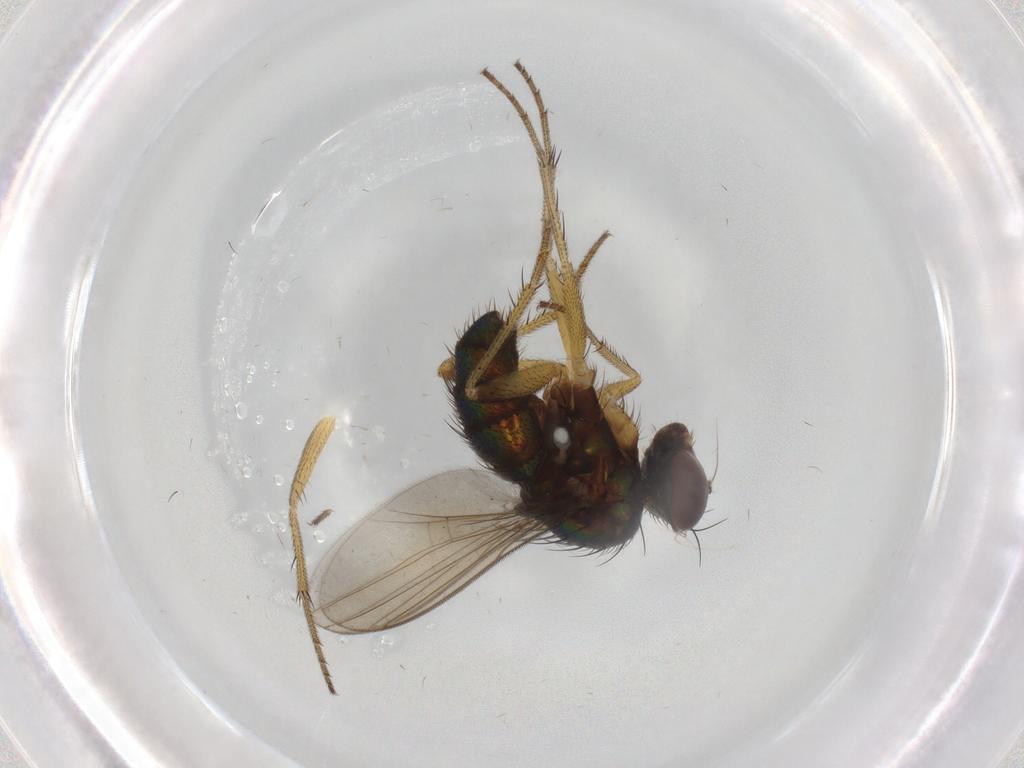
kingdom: Animalia
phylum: Arthropoda
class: Insecta
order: Diptera
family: Dolichopodidae
